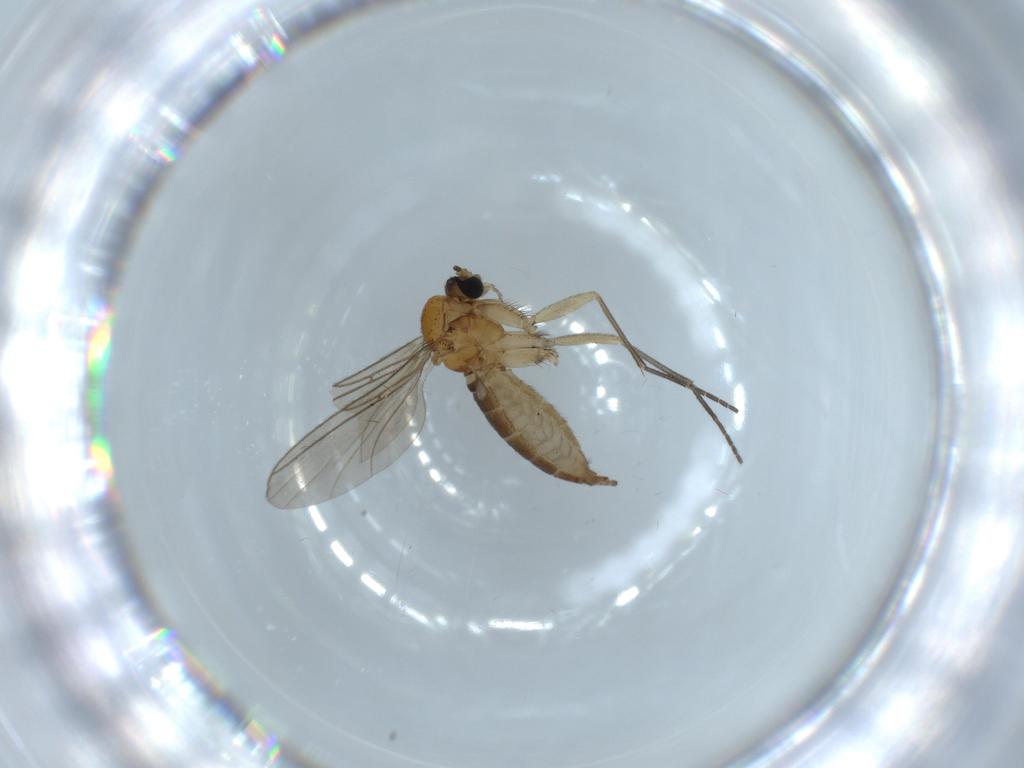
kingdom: Animalia
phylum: Arthropoda
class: Insecta
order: Diptera
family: Sciaridae
